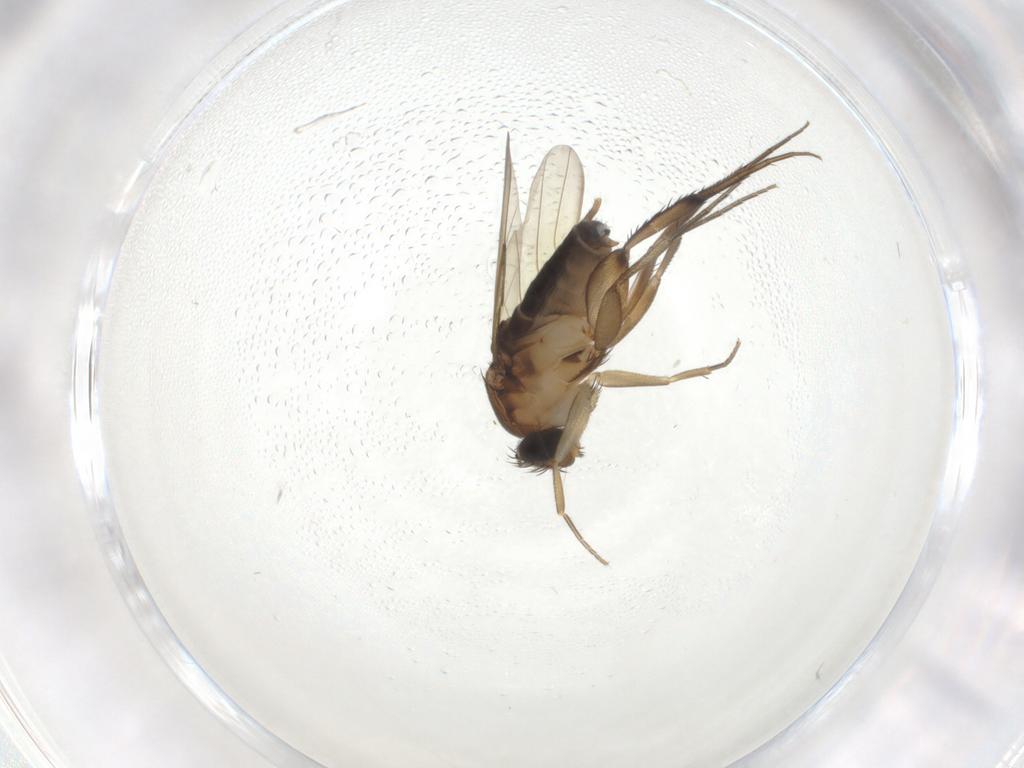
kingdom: Animalia
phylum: Arthropoda
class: Insecta
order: Diptera
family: Phoridae
